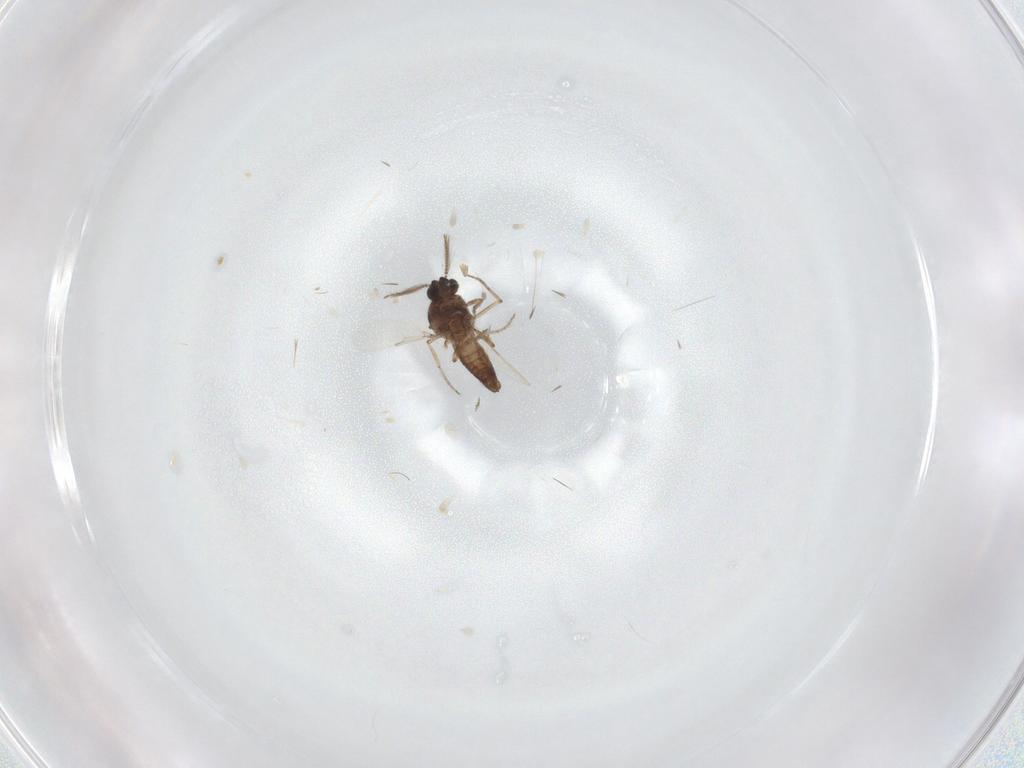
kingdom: Animalia
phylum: Arthropoda
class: Insecta
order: Diptera
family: Ceratopogonidae
